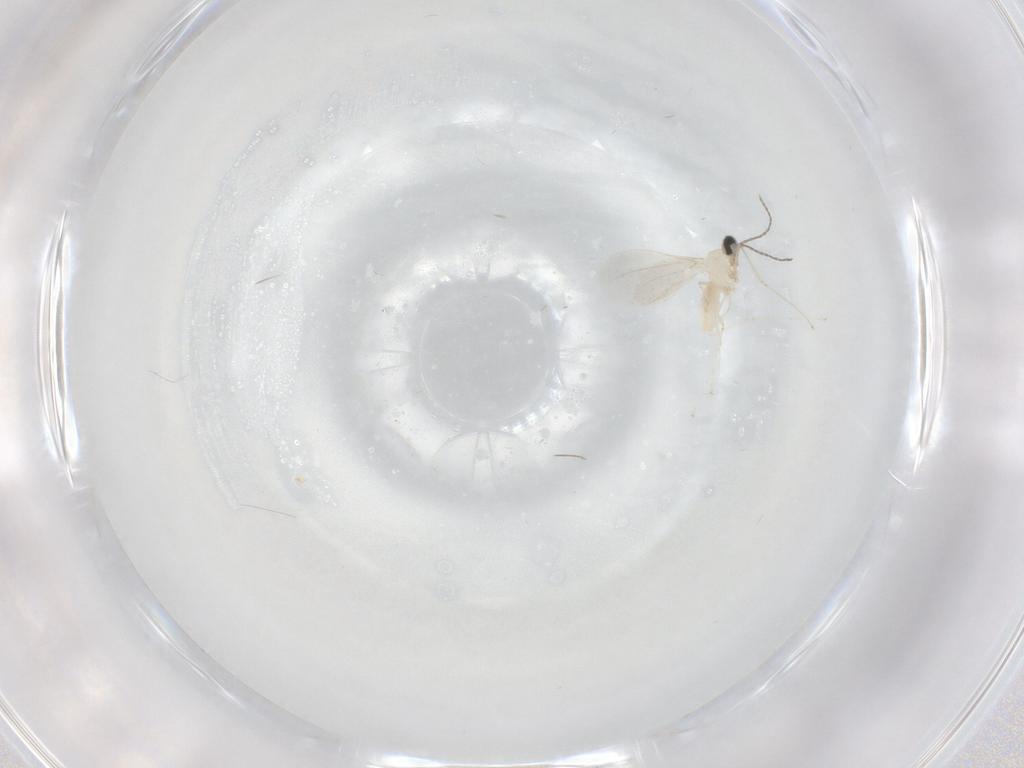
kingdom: Animalia
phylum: Arthropoda
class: Insecta
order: Diptera
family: Cecidomyiidae
